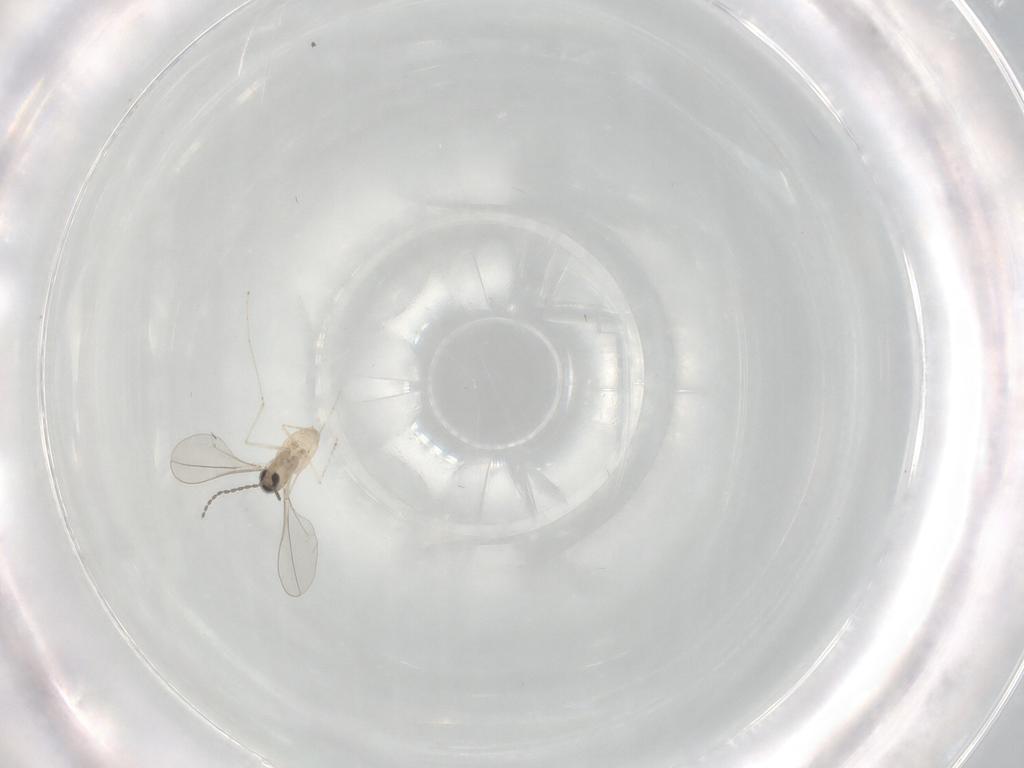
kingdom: Animalia
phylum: Arthropoda
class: Insecta
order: Diptera
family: Cecidomyiidae
